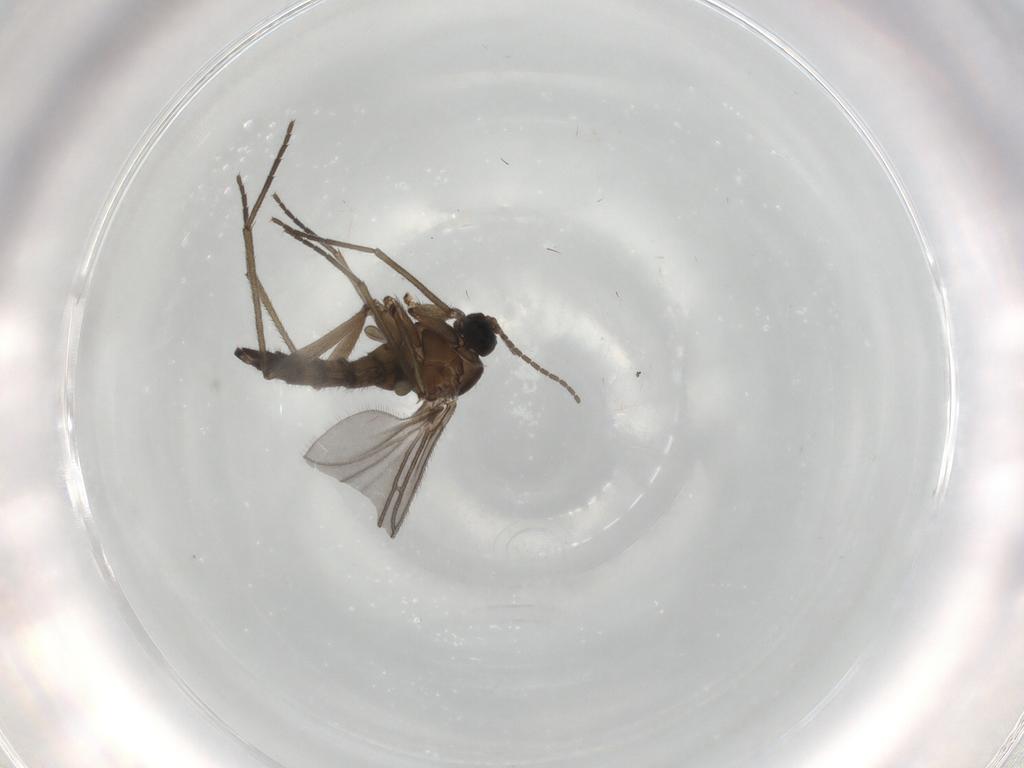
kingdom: Animalia
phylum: Arthropoda
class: Insecta
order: Diptera
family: Sciaridae
